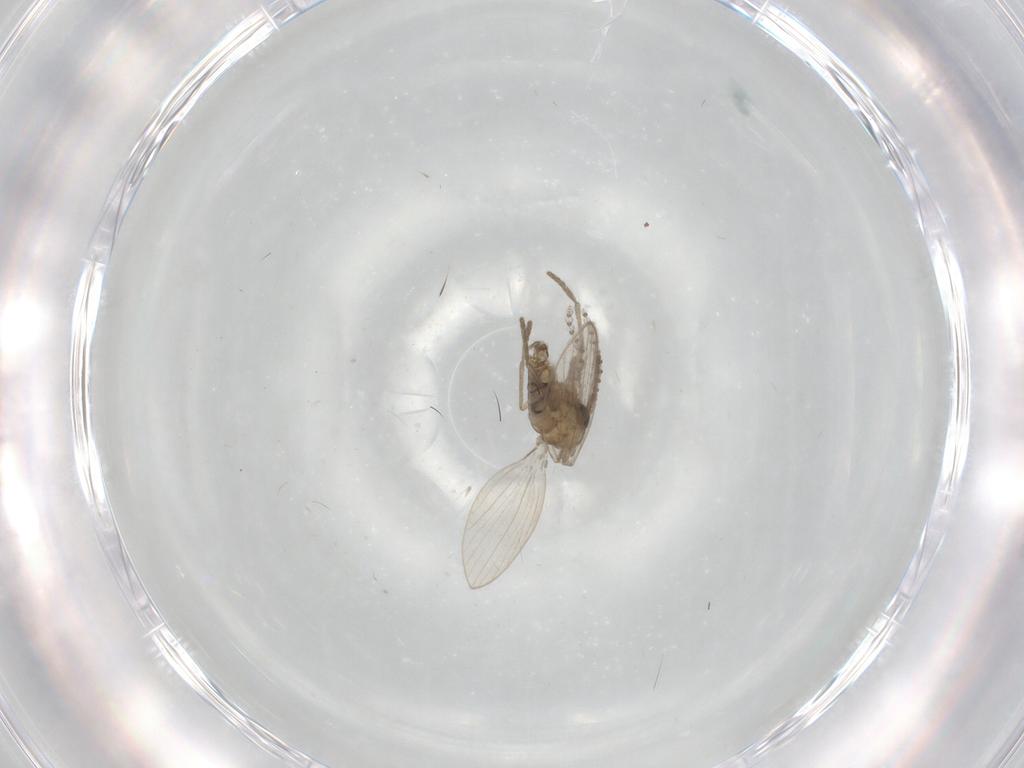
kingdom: Animalia
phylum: Arthropoda
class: Insecta
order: Diptera
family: Psychodidae
